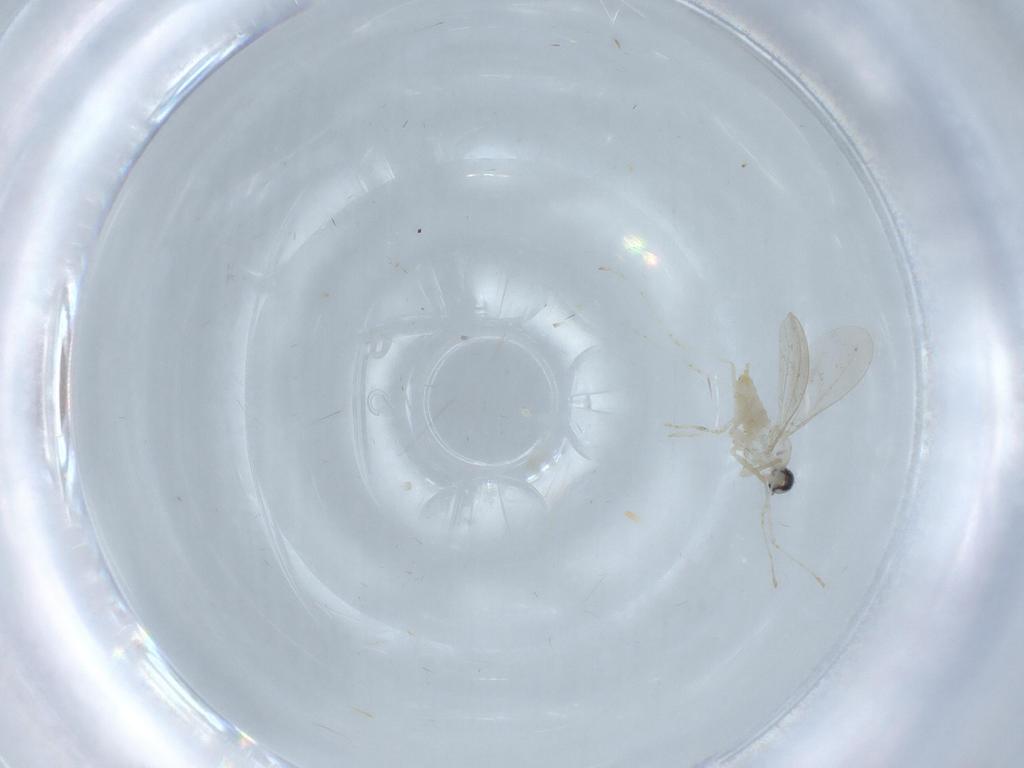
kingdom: Animalia
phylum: Arthropoda
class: Insecta
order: Diptera
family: Cecidomyiidae
